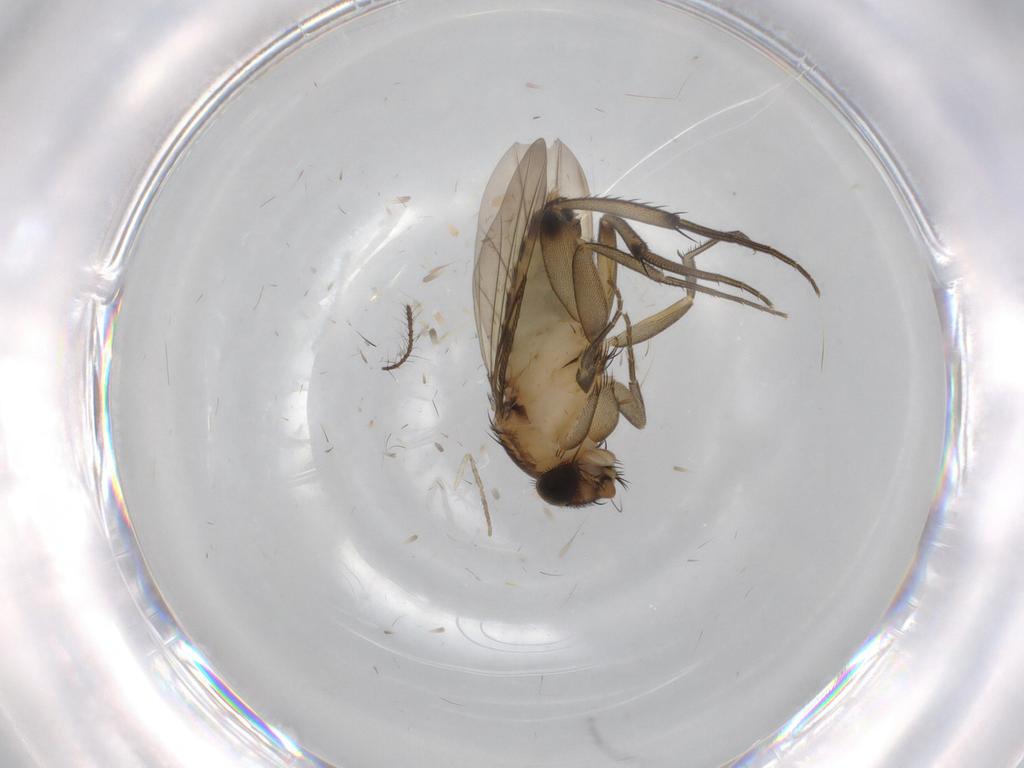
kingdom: Animalia
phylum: Arthropoda
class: Insecta
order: Diptera
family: Phoridae
